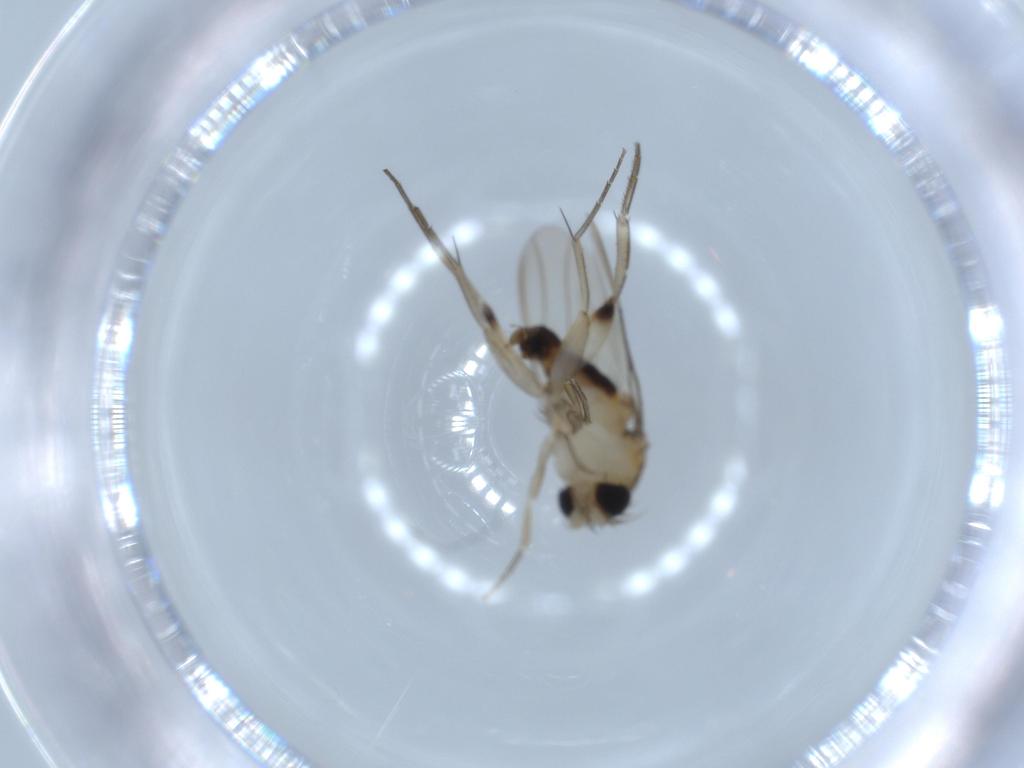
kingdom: Animalia
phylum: Arthropoda
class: Insecta
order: Diptera
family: Phoridae
